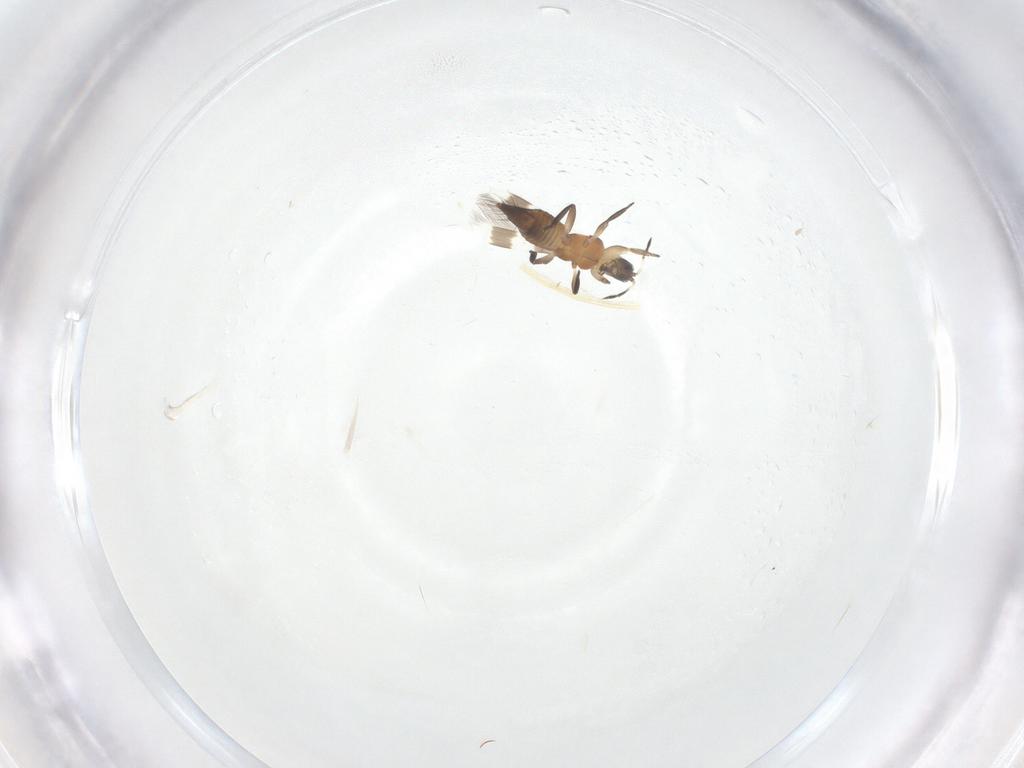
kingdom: Animalia
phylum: Arthropoda
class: Insecta
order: Thysanoptera
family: Aeolothripidae
